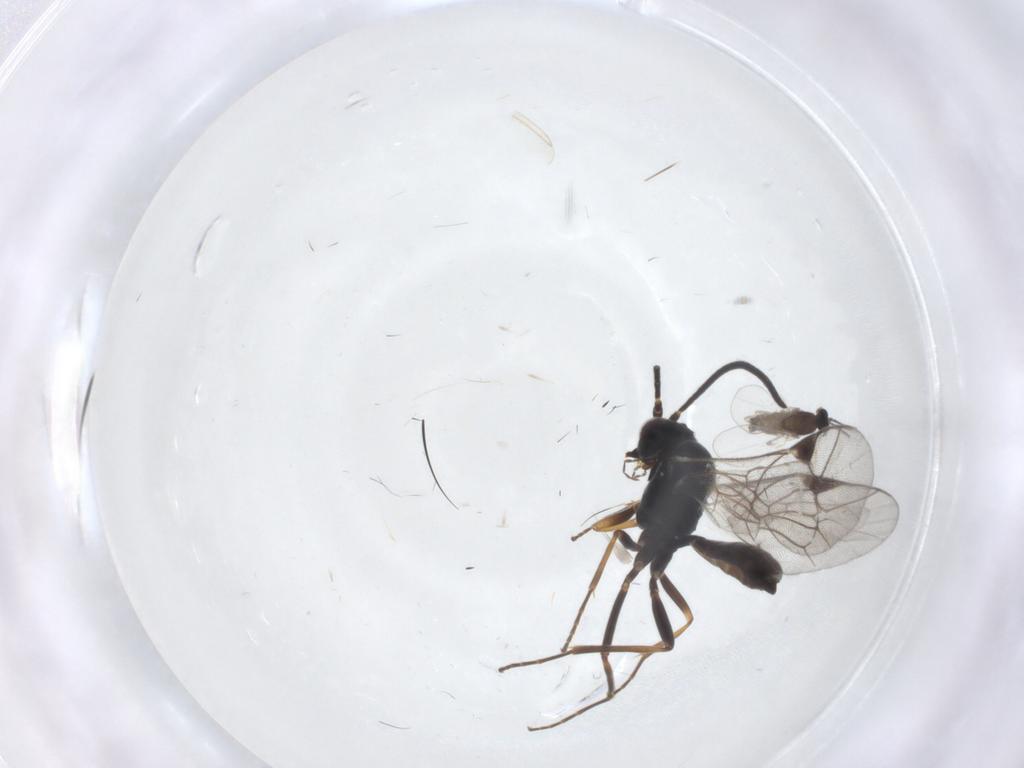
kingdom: Animalia
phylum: Arthropoda
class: Insecta
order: Diptera
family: Cecidomyiidae
